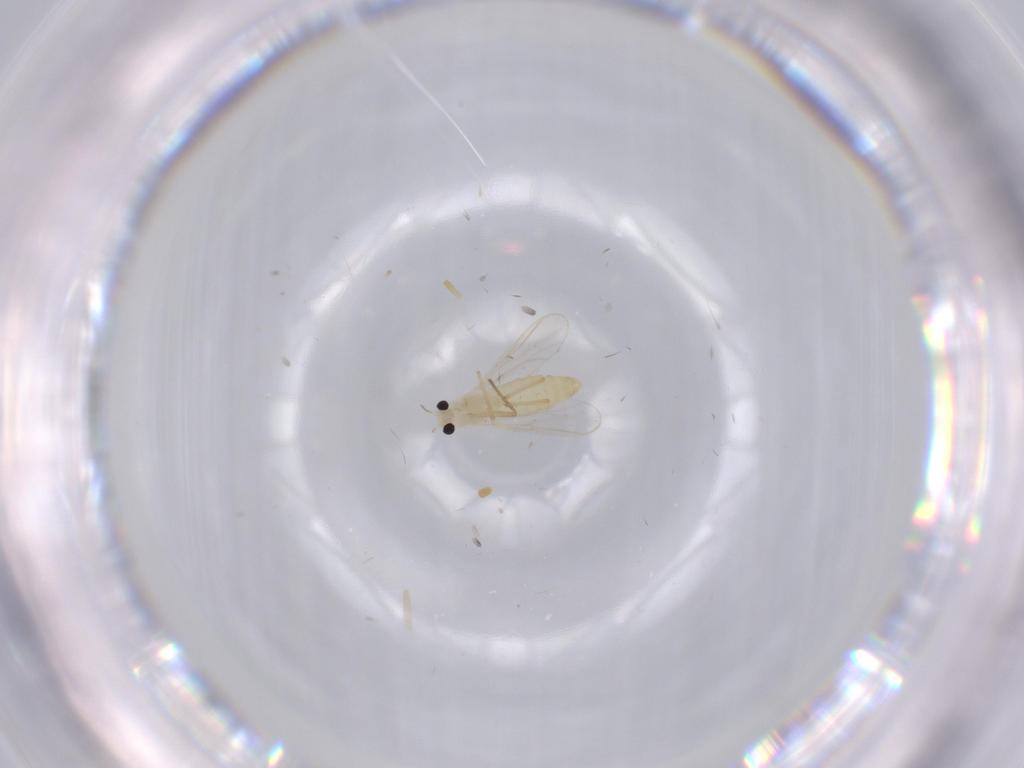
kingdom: Animalia
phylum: Arthropoda
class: Insecta
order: Diptera
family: Chironomidae
